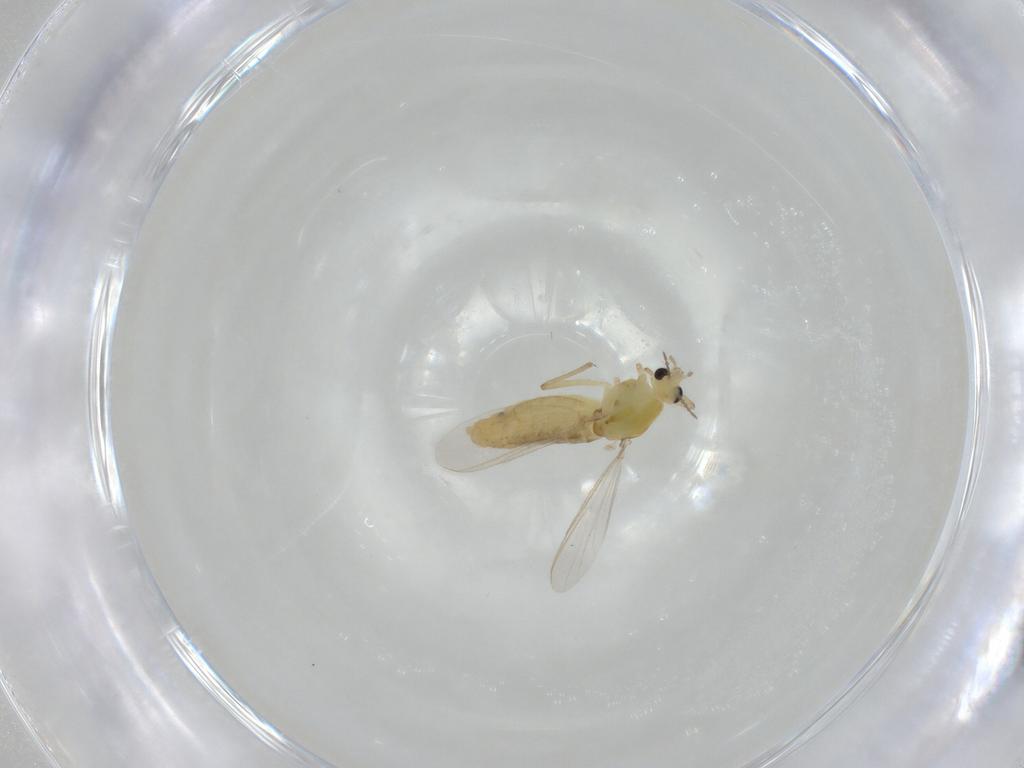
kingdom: Animalia
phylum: Arthropoda
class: Insecta
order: Diptera
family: Chironomidae
